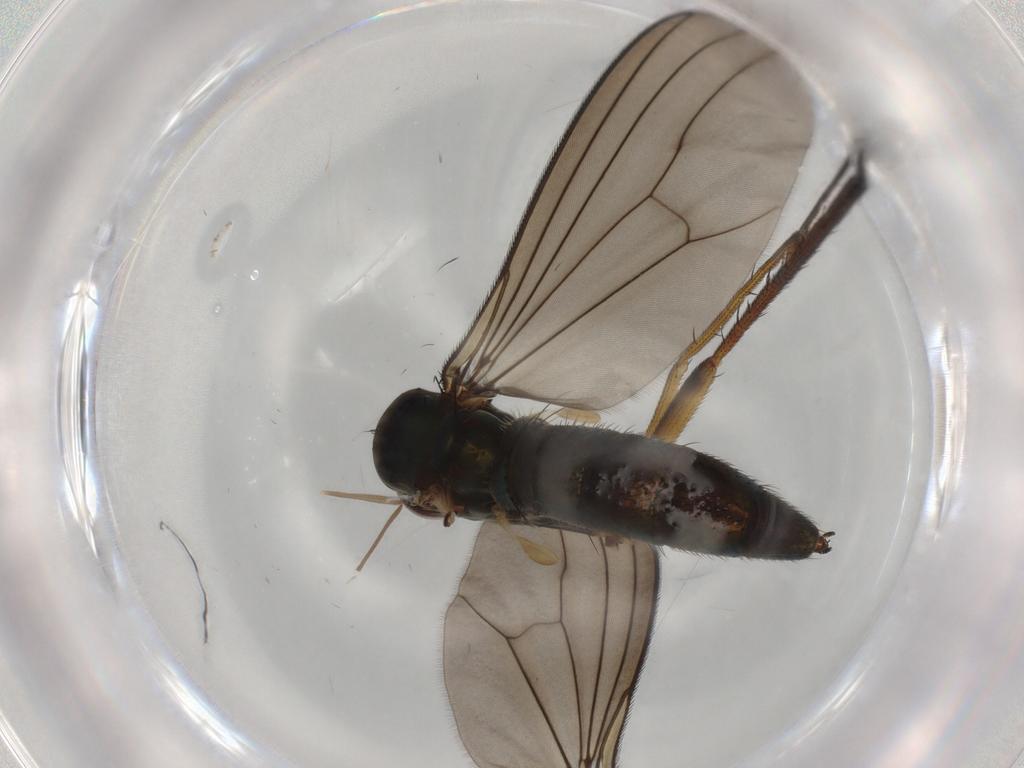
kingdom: Animalia
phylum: Arthropoda
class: Insecta
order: Diptera
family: Dolichopodidae
